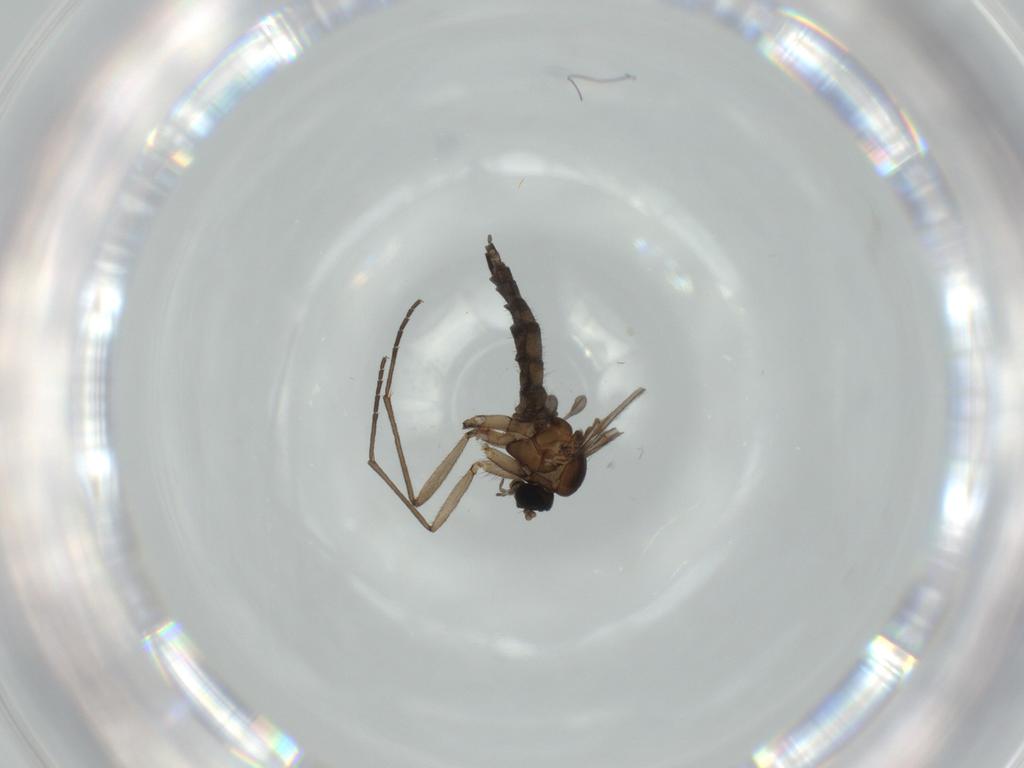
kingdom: Animalia
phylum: Arthropoda
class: Insecta
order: Diptera
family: Sciaridae
